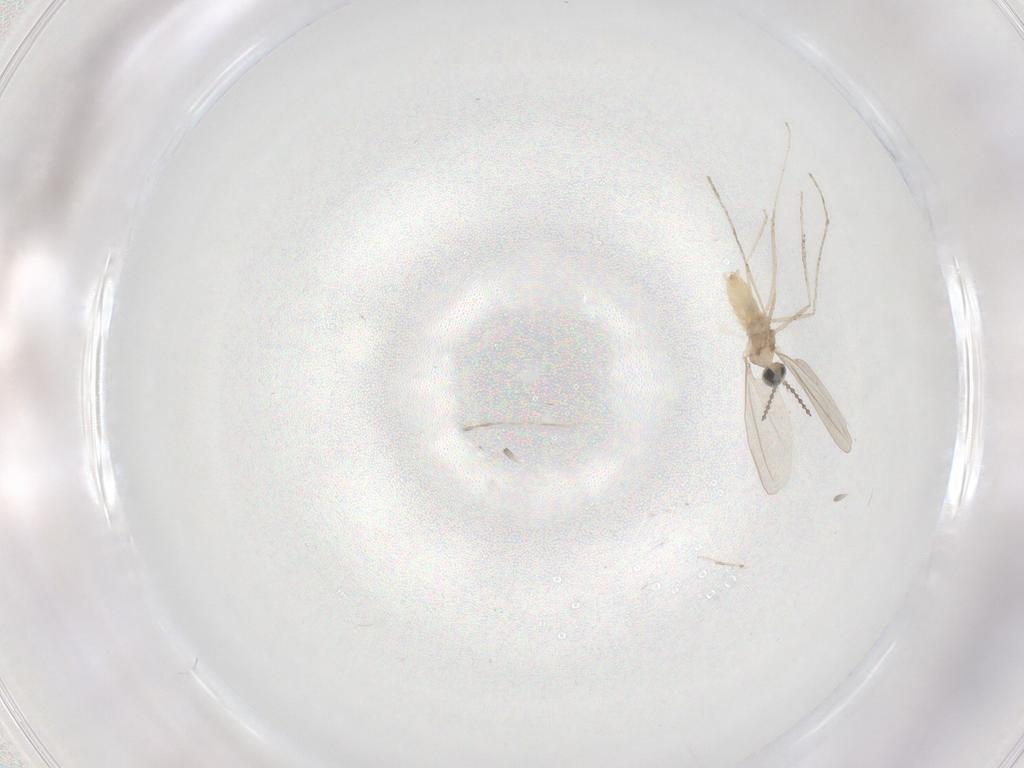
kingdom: Animalia
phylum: Arthropoda
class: Insecta
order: Diptera
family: Cecidomyiidae
